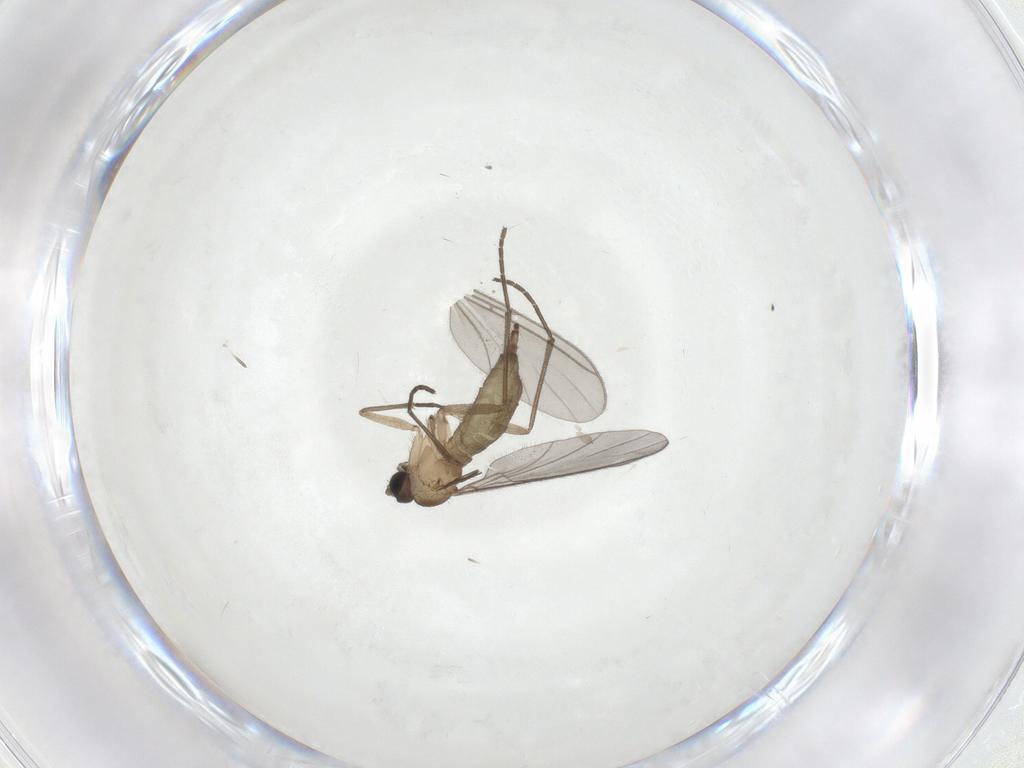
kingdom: Animalia
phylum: Arthropoda
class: Insecta
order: Diptera
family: Sciaridae
